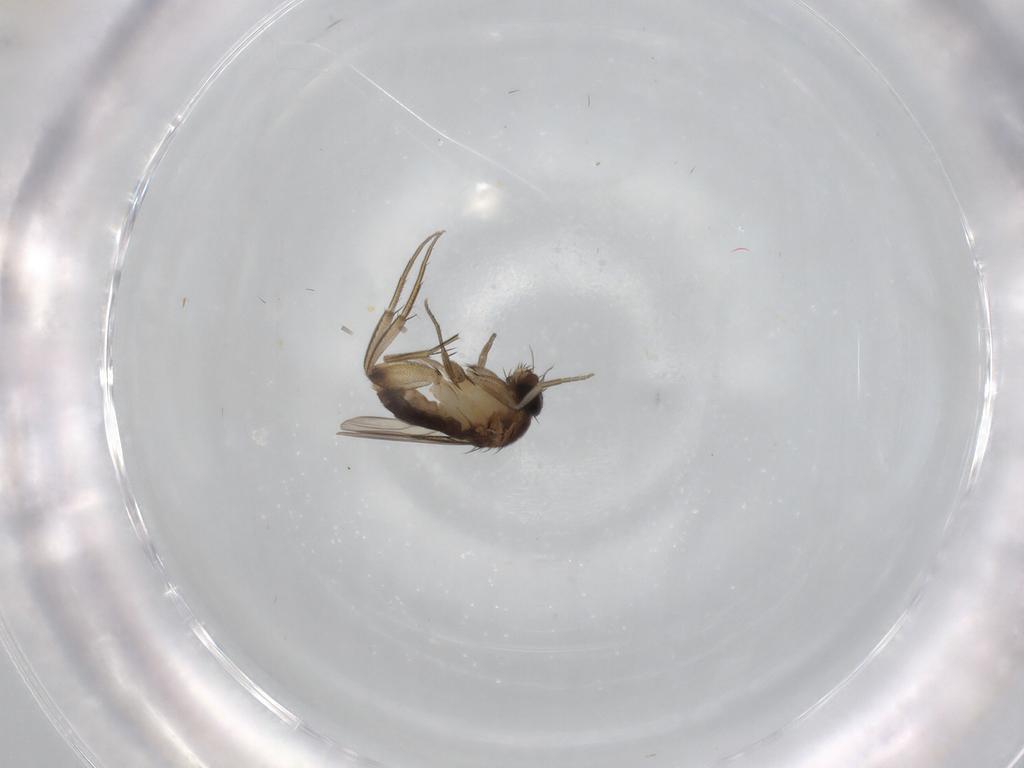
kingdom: Animalia
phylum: Arthropoda
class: Insecta
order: Diptera
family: Phoridae
